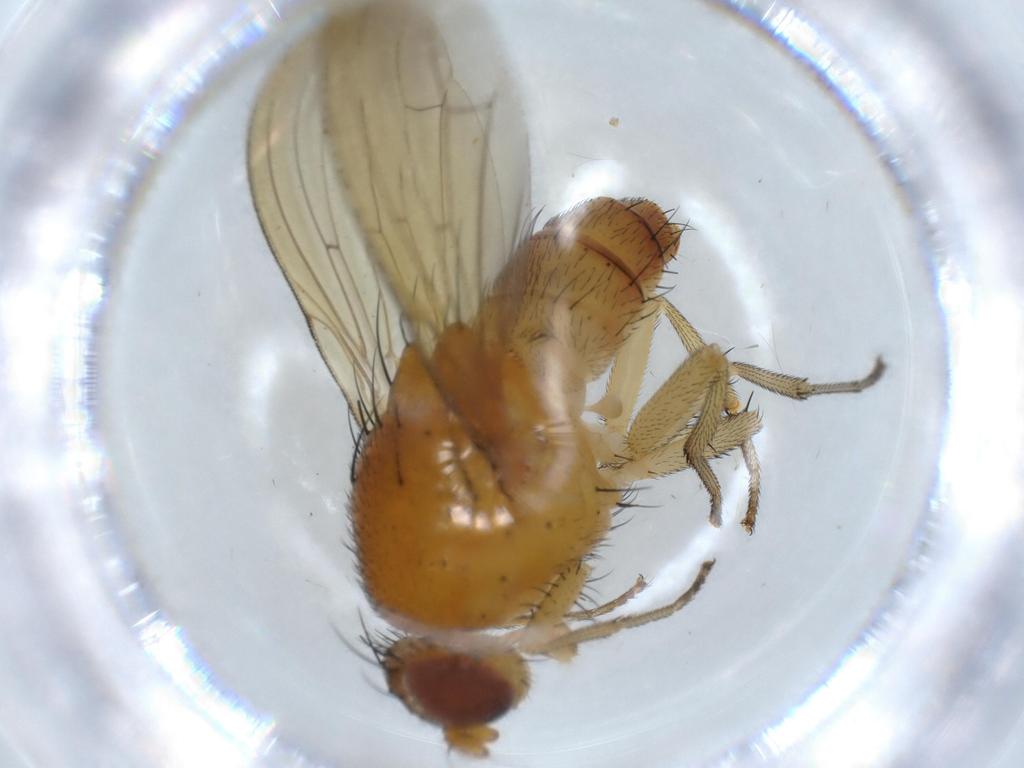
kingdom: Animalia
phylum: Arthropoda
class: Insecta
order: Diptera
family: Lauxaniidae
